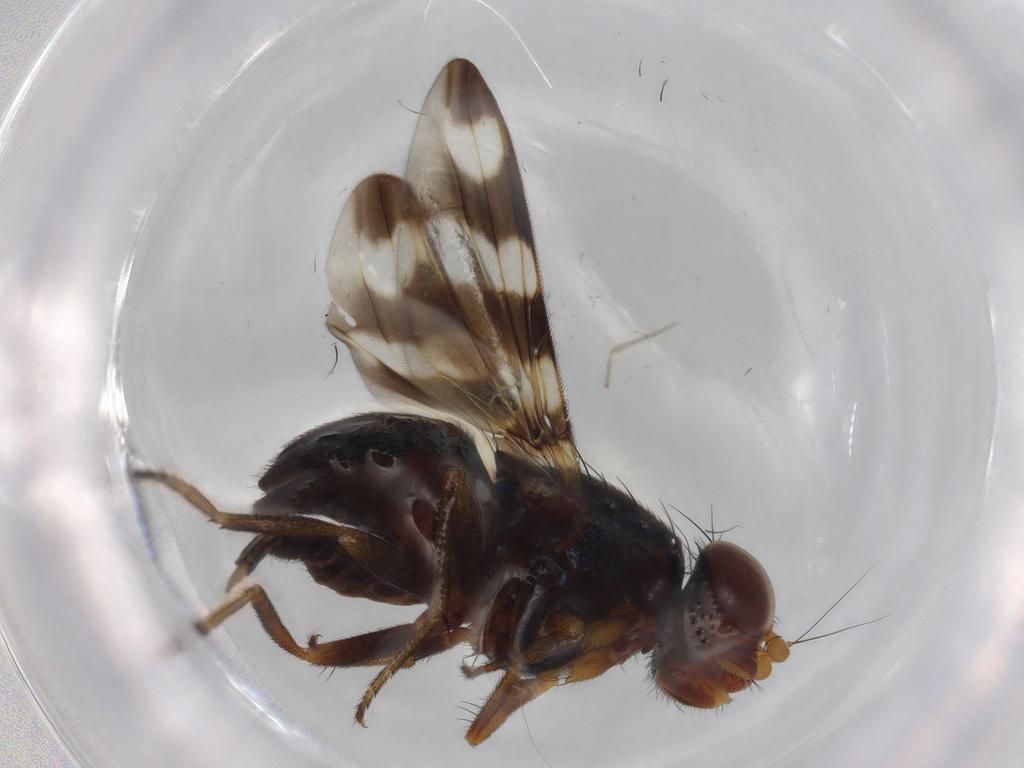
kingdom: Animalia
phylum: Arthropoda
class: Insecta
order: Diptera
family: Ulidiidae
